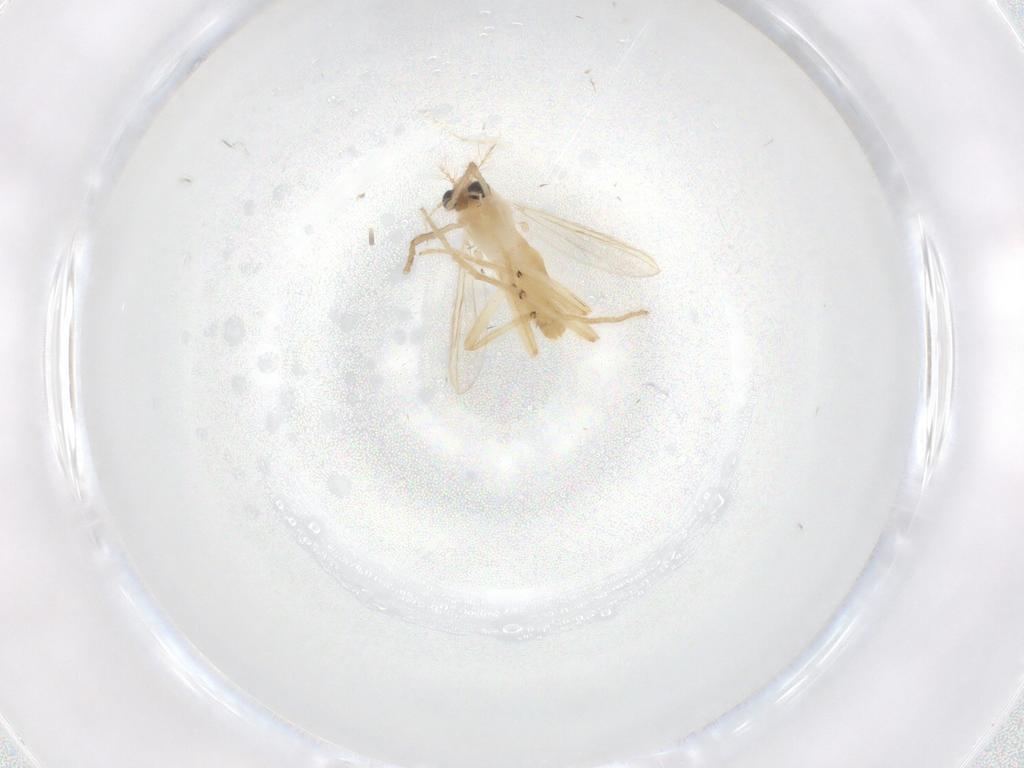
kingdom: Animalia
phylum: Arthropoda
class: Insecta
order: Diptera
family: Chironomidae
